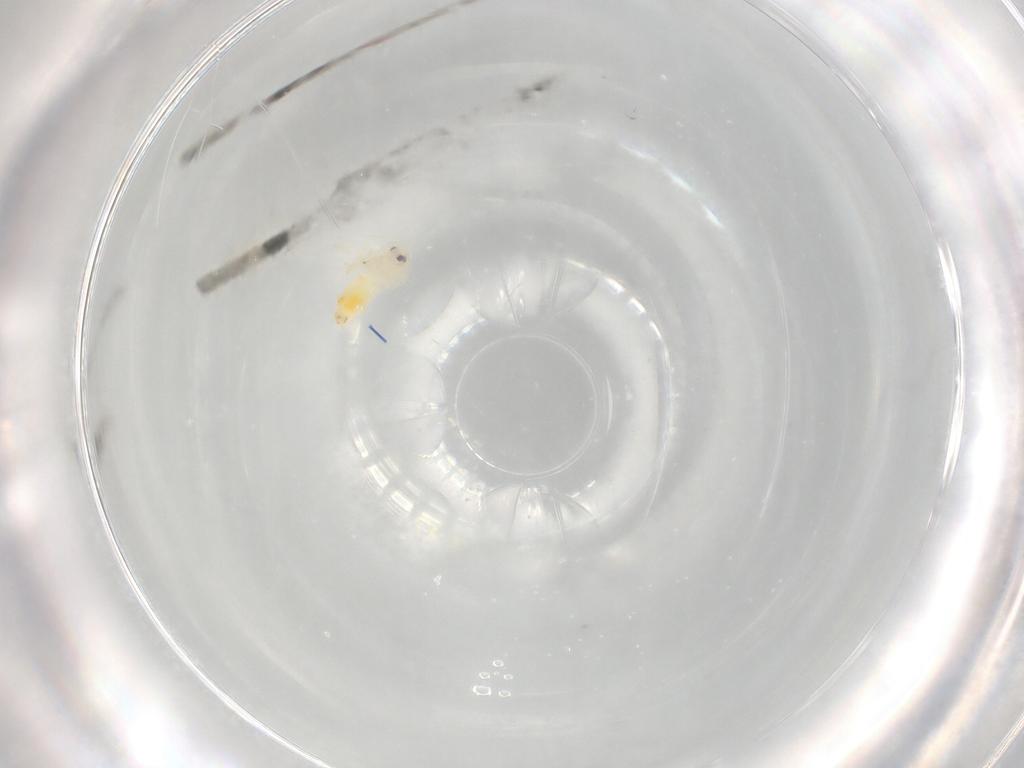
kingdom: Animalia
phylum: Arthropoda
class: Insecta
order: Hemiptera
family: Aleyrodidae
